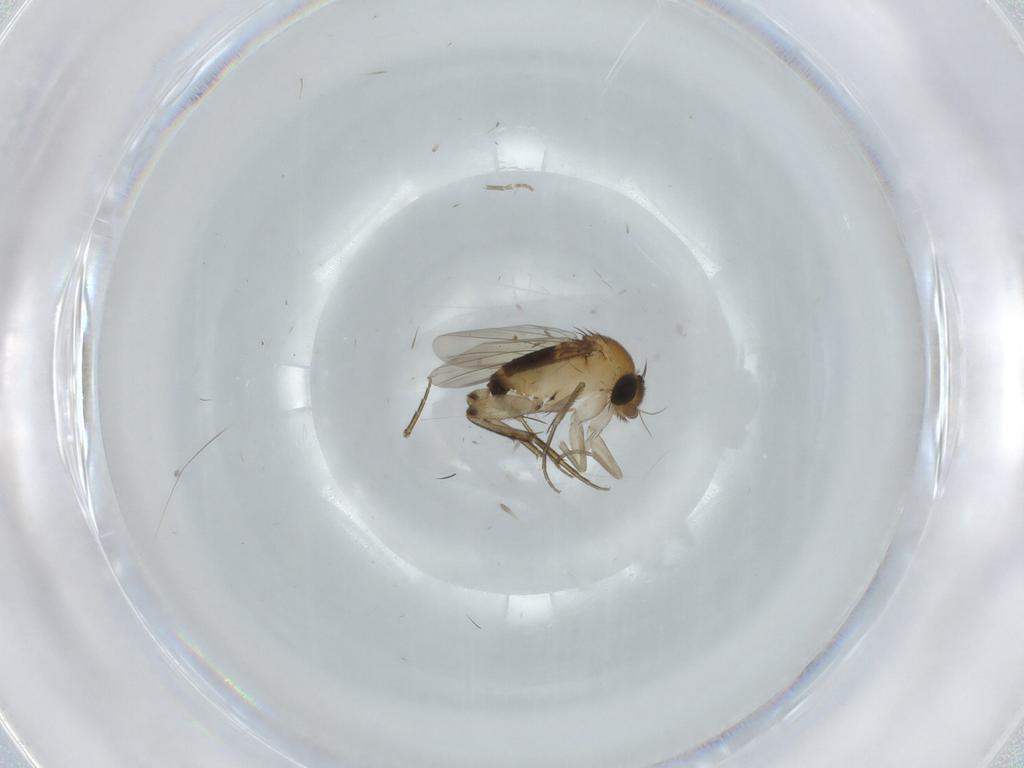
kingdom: Animalia
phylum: Arthropoda
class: Insecta
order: Diptera
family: Phoridae
